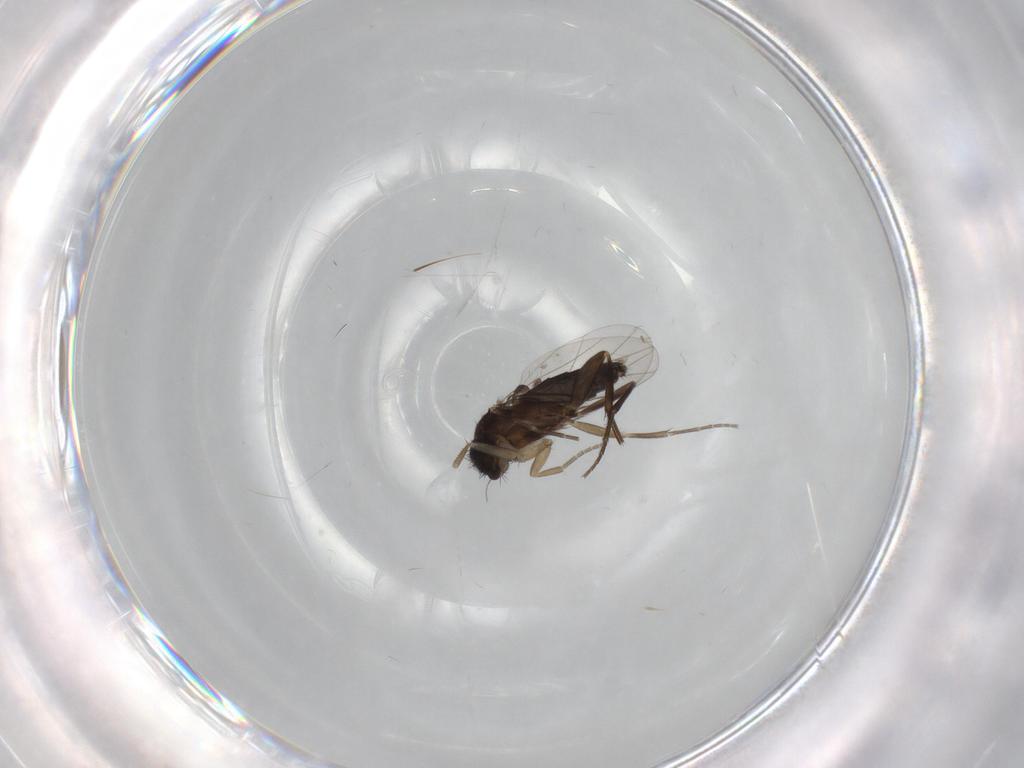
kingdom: Animalia
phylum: Arthropoda
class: Insecta
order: Diptera
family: Phoridae
